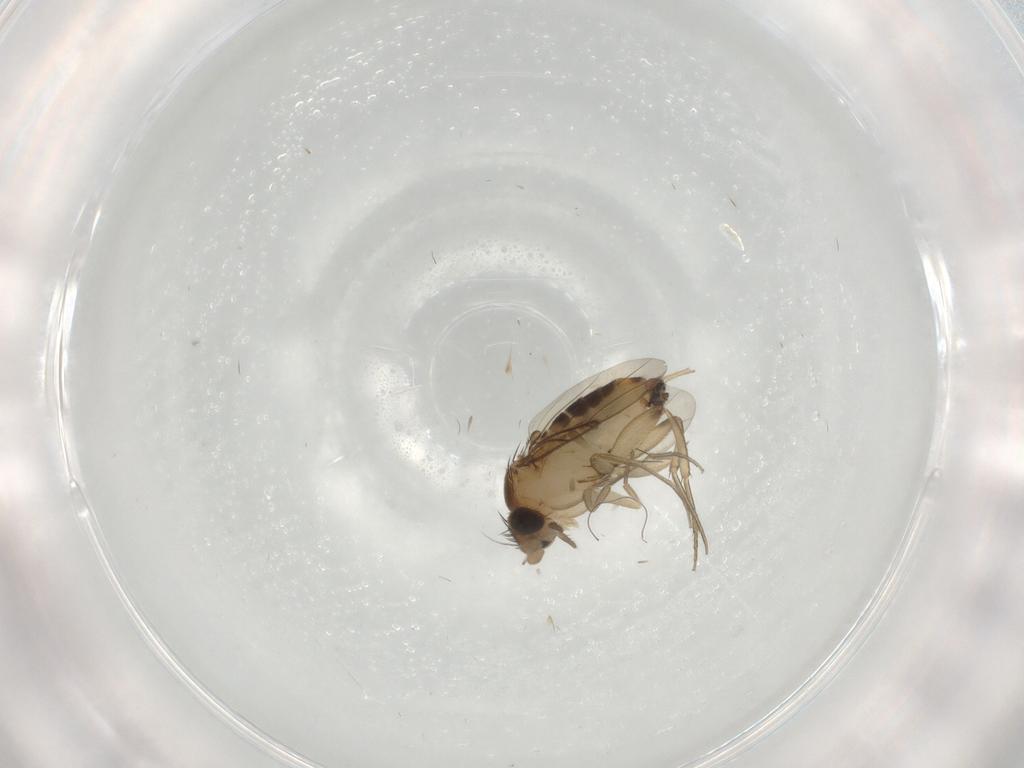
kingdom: Animalia
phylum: Arthropoda
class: Insecta
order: Diptera
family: Phoridae
